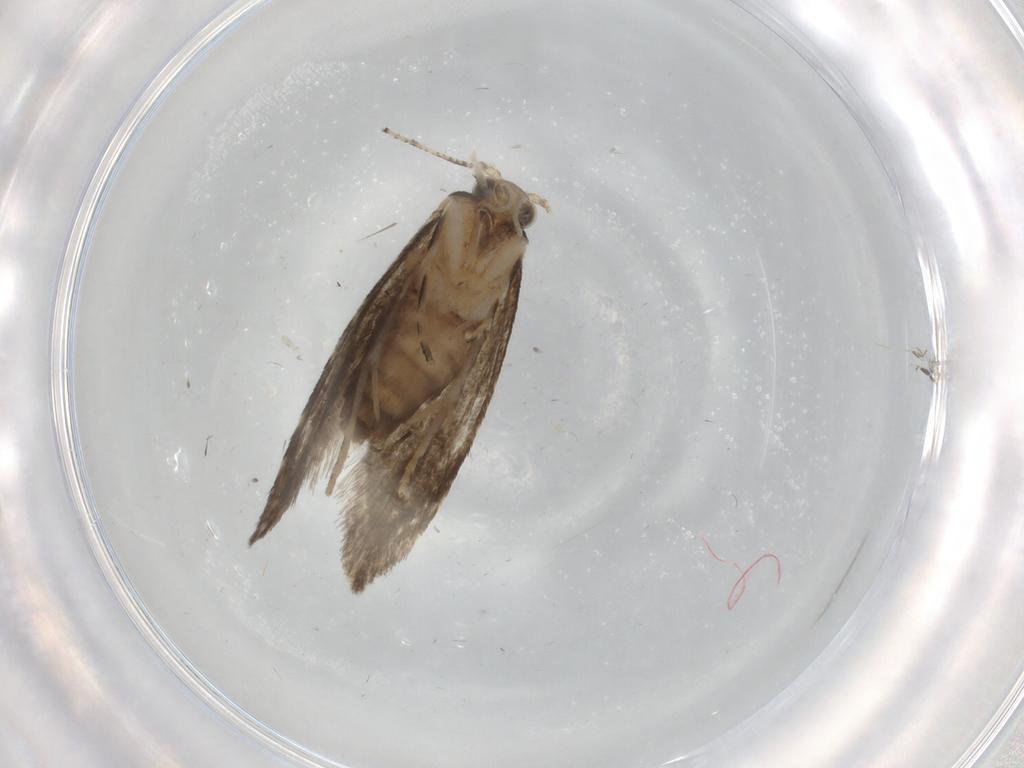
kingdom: Animalia
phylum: Arthropoda
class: Insecta
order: Lepidoptera
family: Tineidae
